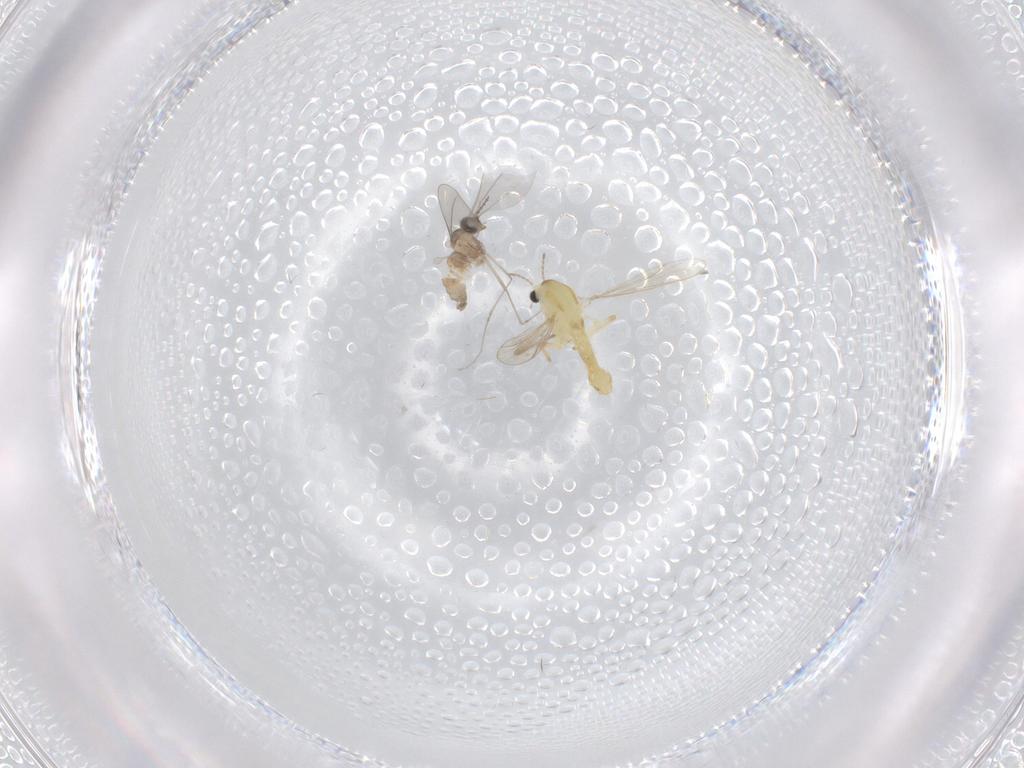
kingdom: Animalia
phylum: Arthropoda
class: Insecta
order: Diptera
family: Chironomidae
